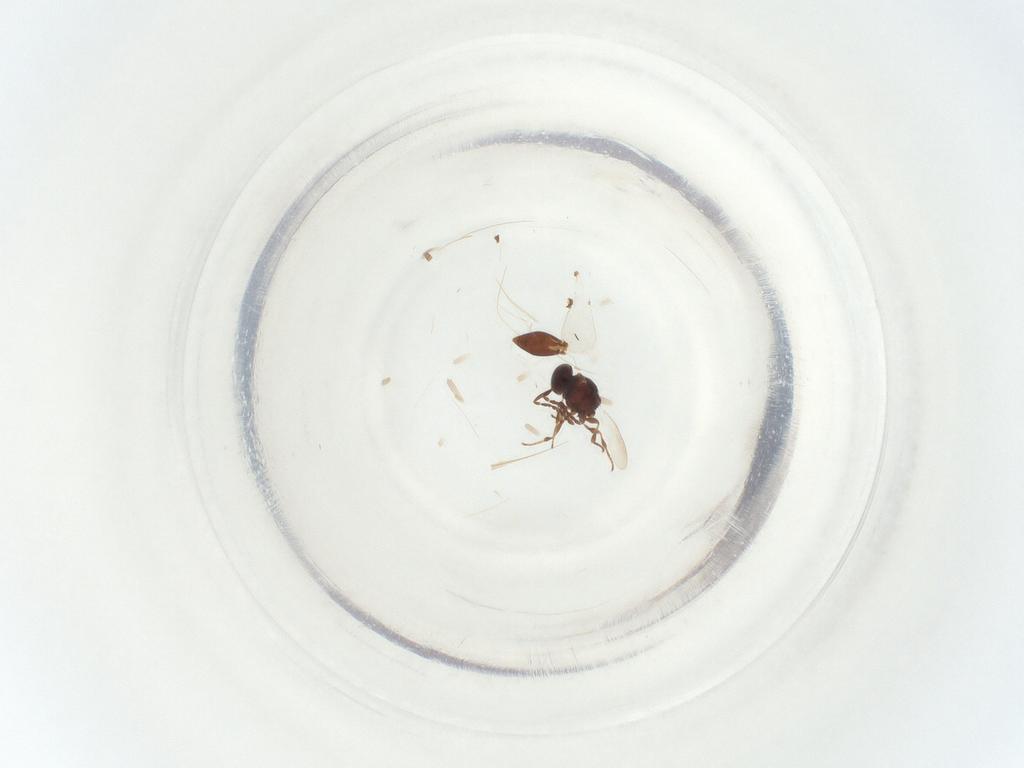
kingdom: Animalia
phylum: Arthropoda
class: Insecta
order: Hymenoptera
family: Platygastridae
